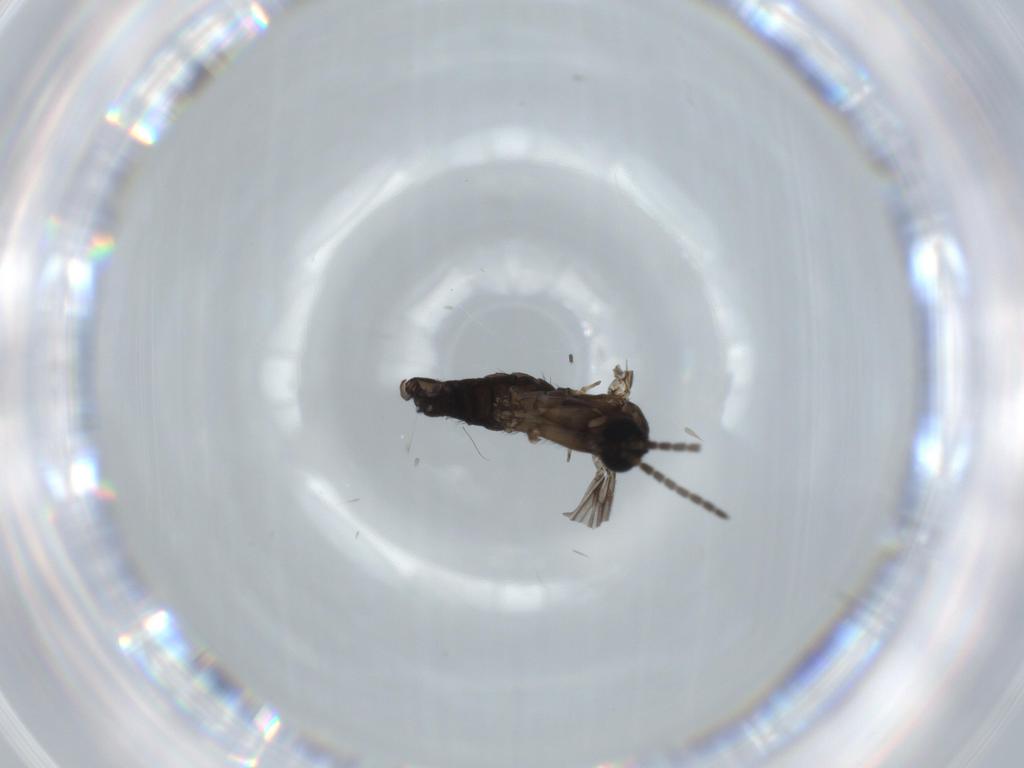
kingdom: Animalia
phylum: Arthropoda
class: Insecta
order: Diptera
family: Sciaridae
